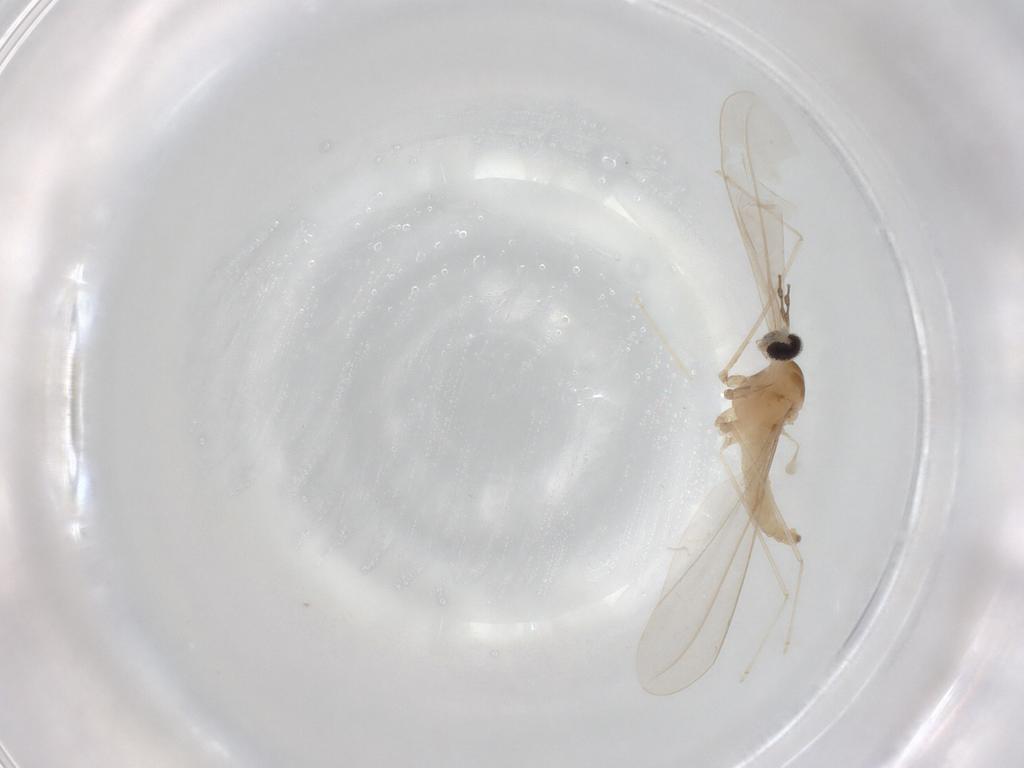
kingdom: Animalia
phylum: Arthropoda
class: Insecta
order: Diptera
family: Cecidomyiidae
